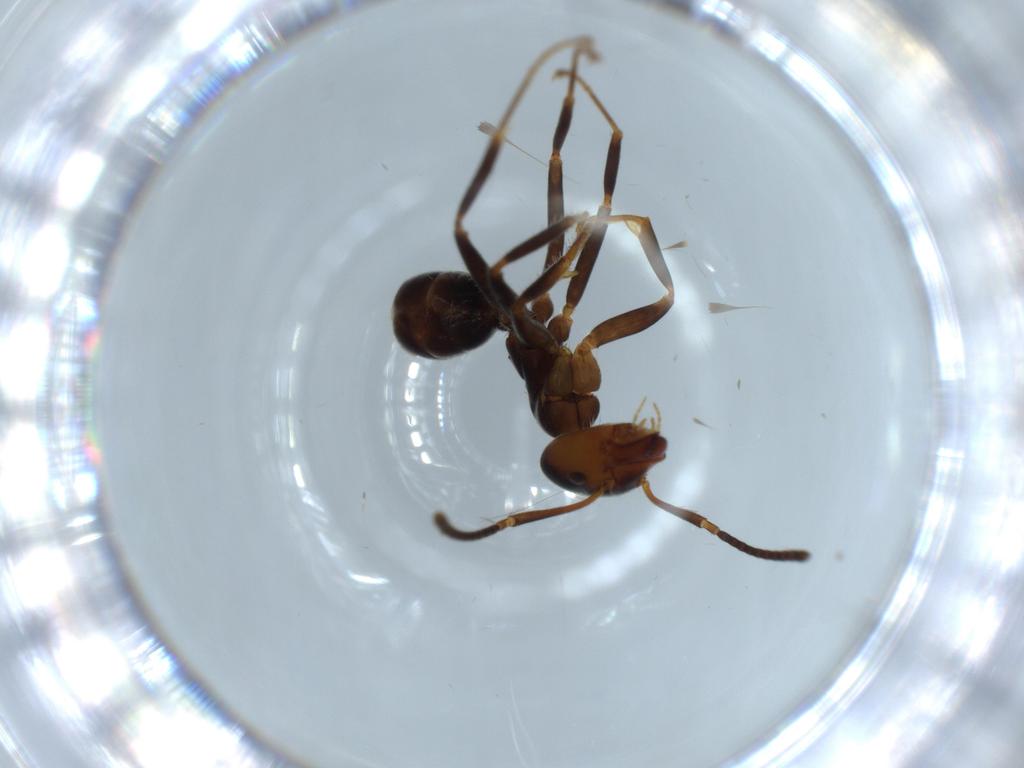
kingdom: Animalia
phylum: Arthropoda
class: Insecta
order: Hymenoptera
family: Formicidae
